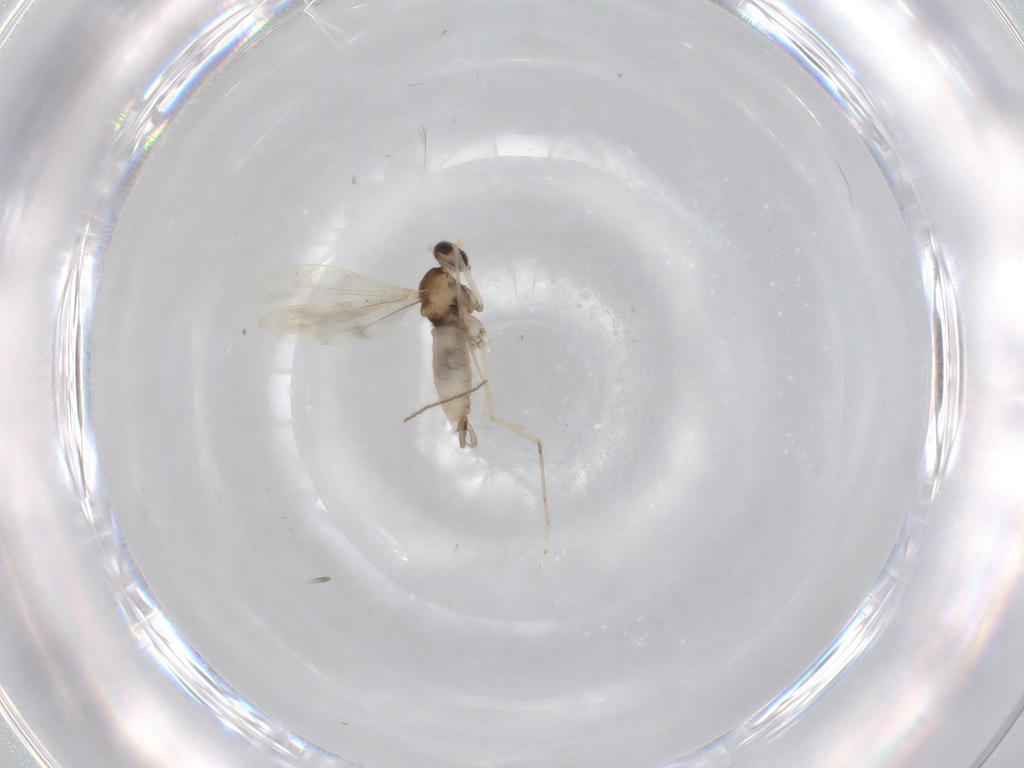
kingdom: Animalia
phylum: Arthropoda
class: Insecta
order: Diptera
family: Cecidomyiidae
